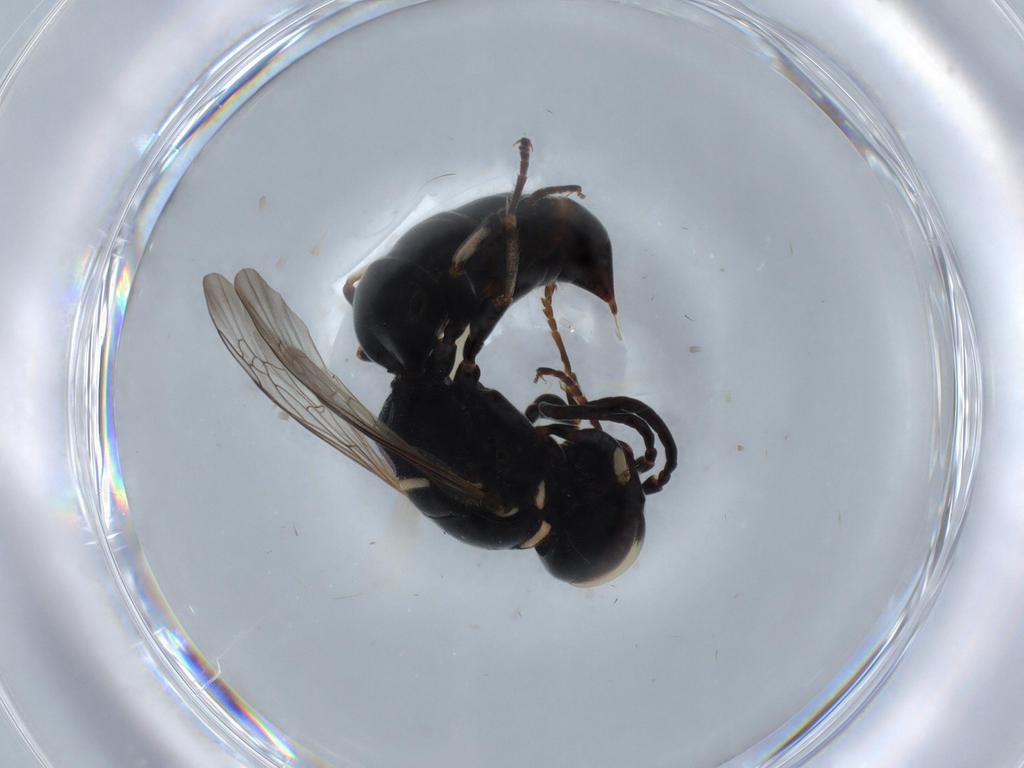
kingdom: Animalia
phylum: Arthropoda
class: Insecta
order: Hymenoptera
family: Crabronidae
